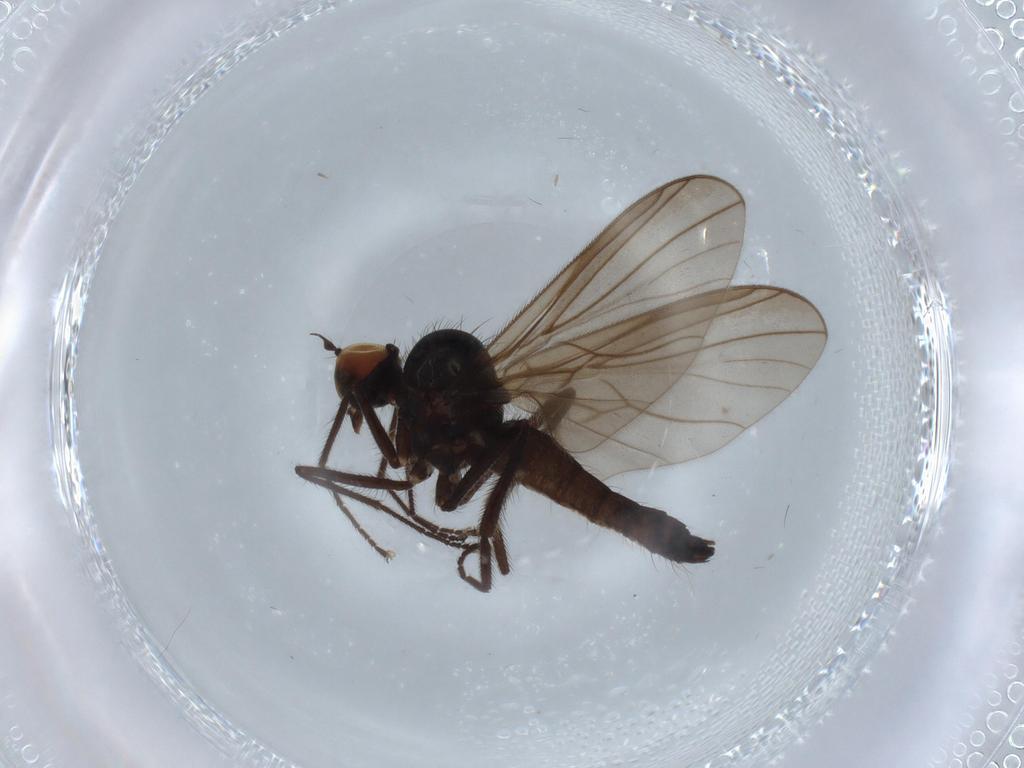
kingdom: Animalia
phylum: Arthropoda
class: Insecta
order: Diptera
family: Hybotidae
